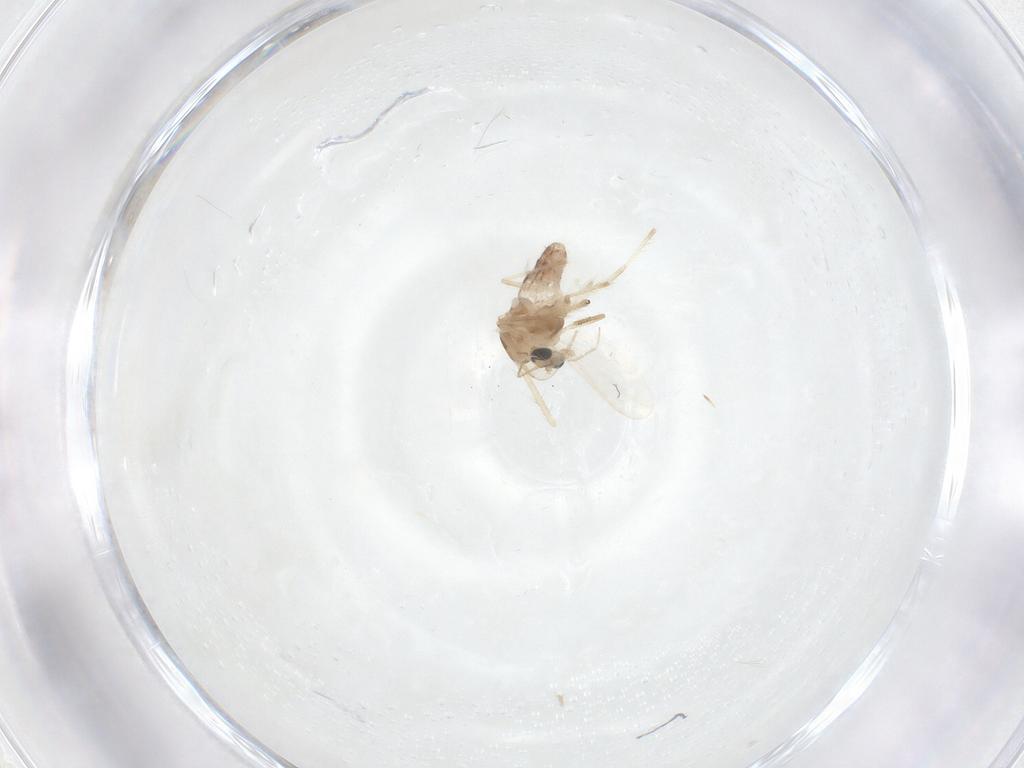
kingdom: Animalia
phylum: Arthropoda
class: Insecta
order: Diptera
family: Chironomidae
